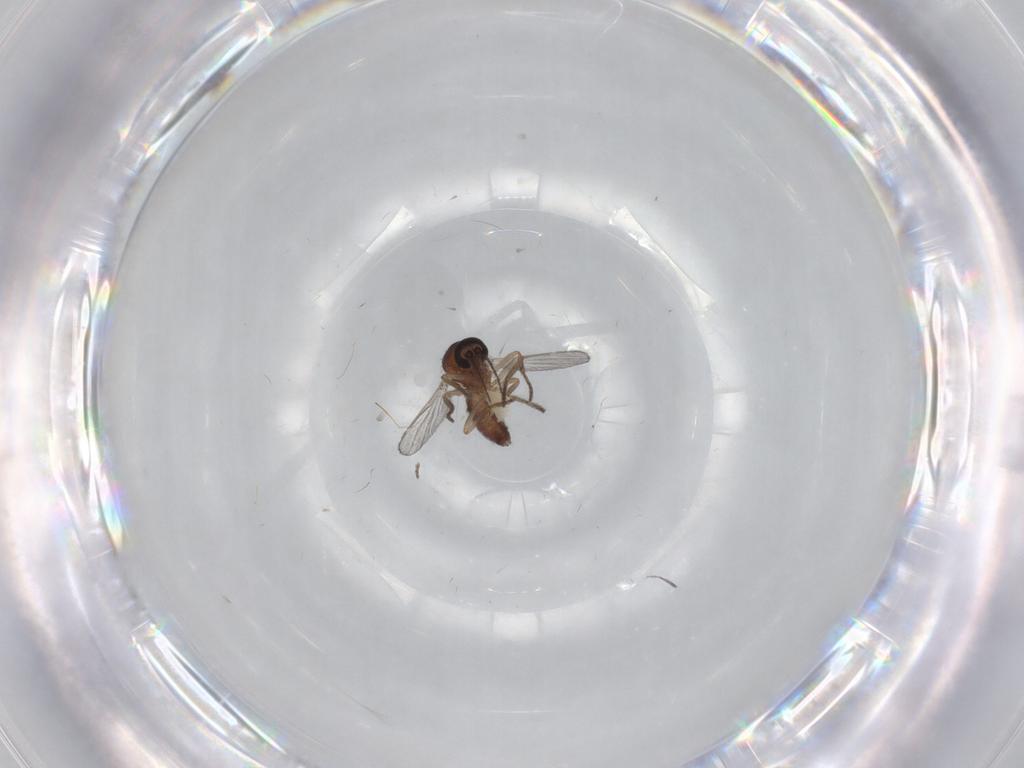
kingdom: Animalia
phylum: Arthropoda
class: Insecta
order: Diptera
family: Ceratopogonidae
